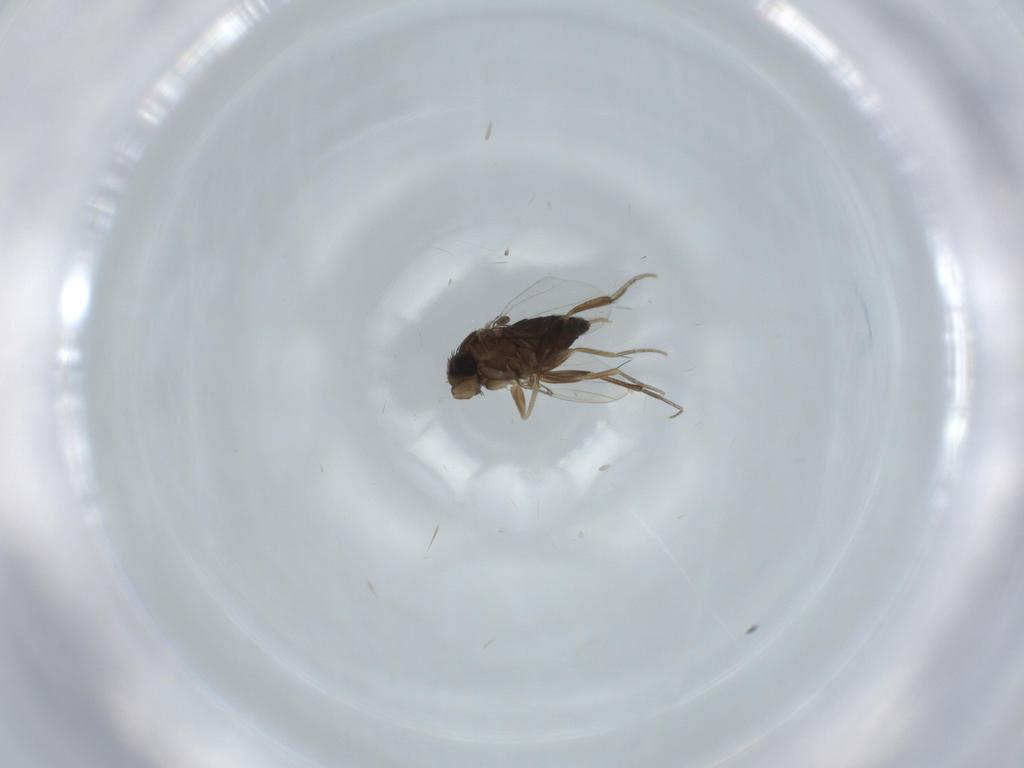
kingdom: Animalia
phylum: Arthropoda
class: Insecta
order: Diptera
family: Phoridae
